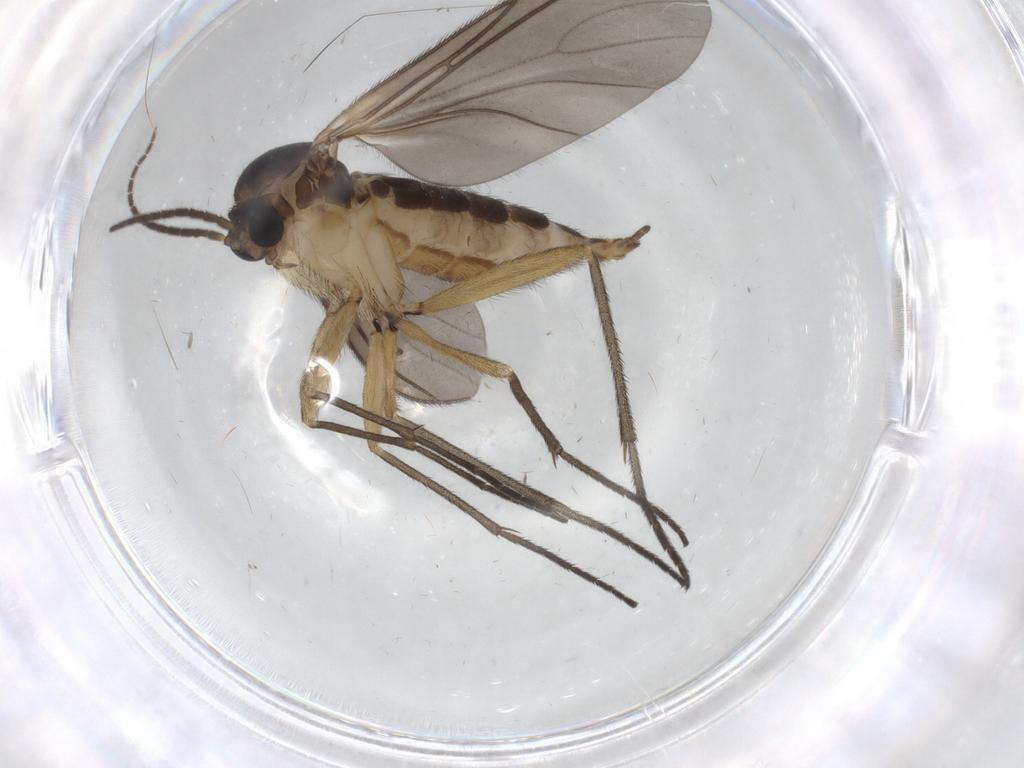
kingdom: Animalia
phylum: Arthropoda
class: Insecta
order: Diptera
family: Sciaridae
